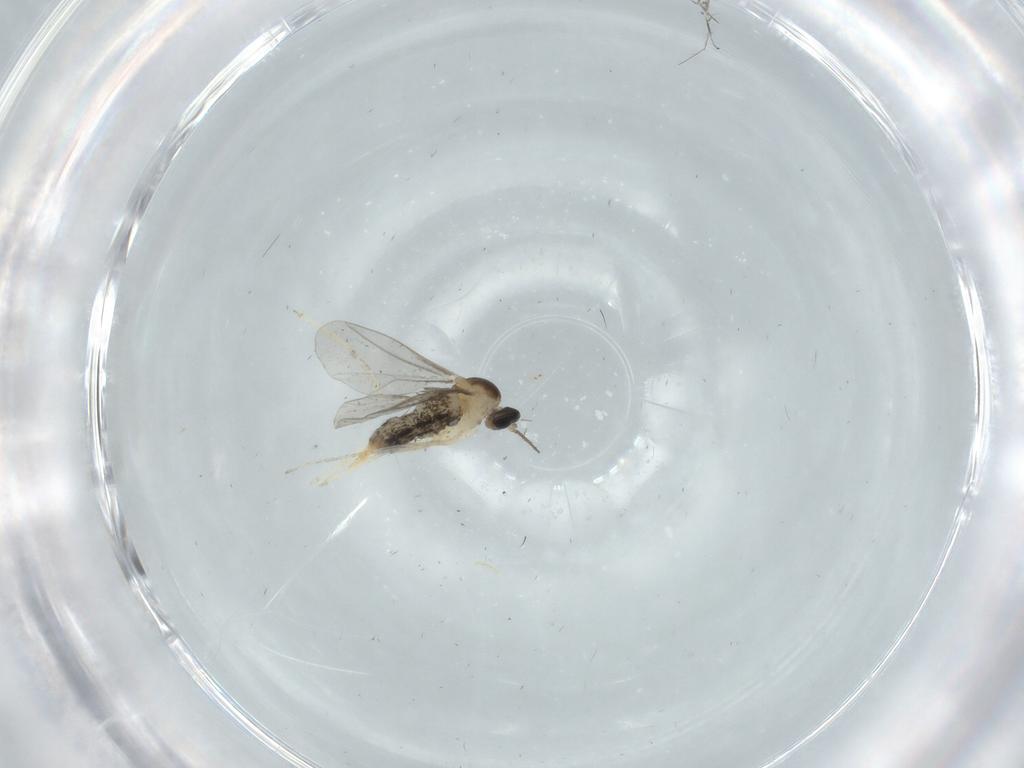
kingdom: Animalia
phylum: Arthropoda
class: Insecta
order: Diptera
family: Cecidomyiidae
